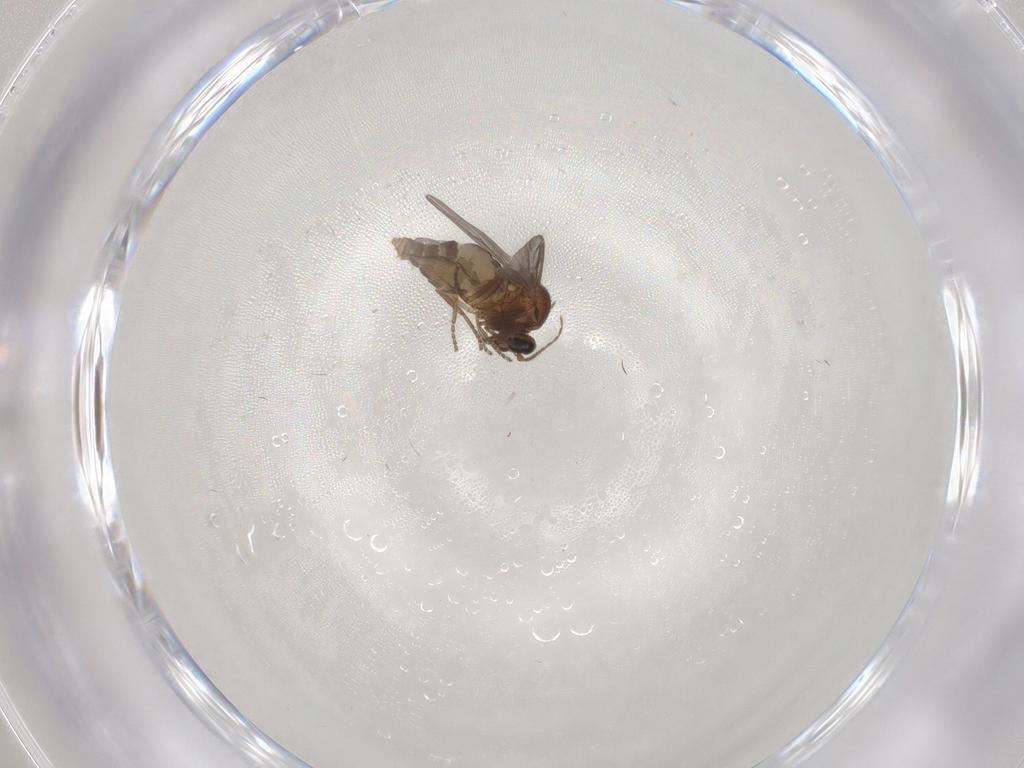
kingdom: Animalia
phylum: Arthropoda
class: Insecta
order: Diptera
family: Ceratopogonidae
